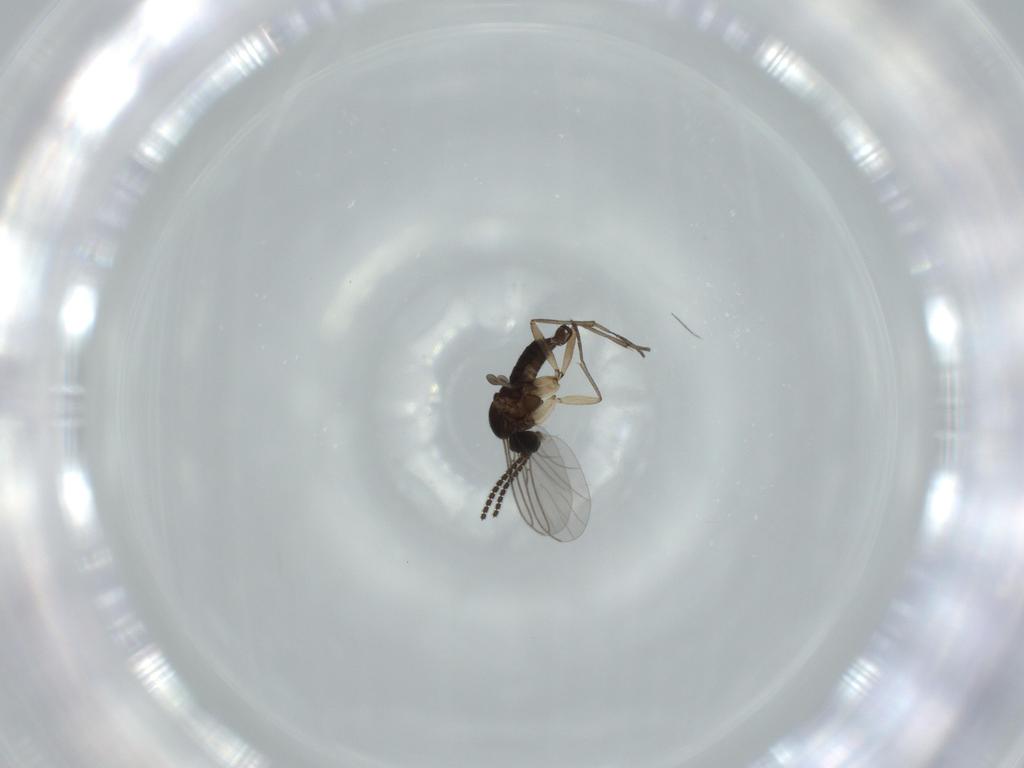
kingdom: Animalia
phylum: Arthropoda
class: Insecta
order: Diptera
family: Sciaridae
